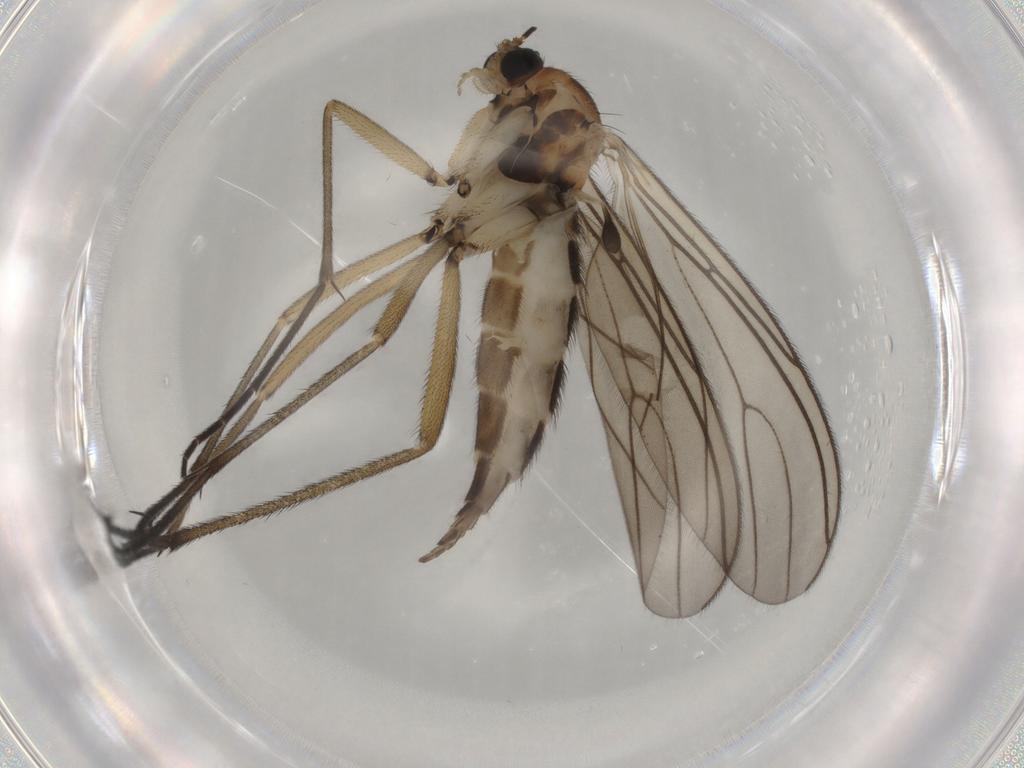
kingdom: Animalia
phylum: Arthropoda
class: Insecta
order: Diptera
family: Sciaridae
